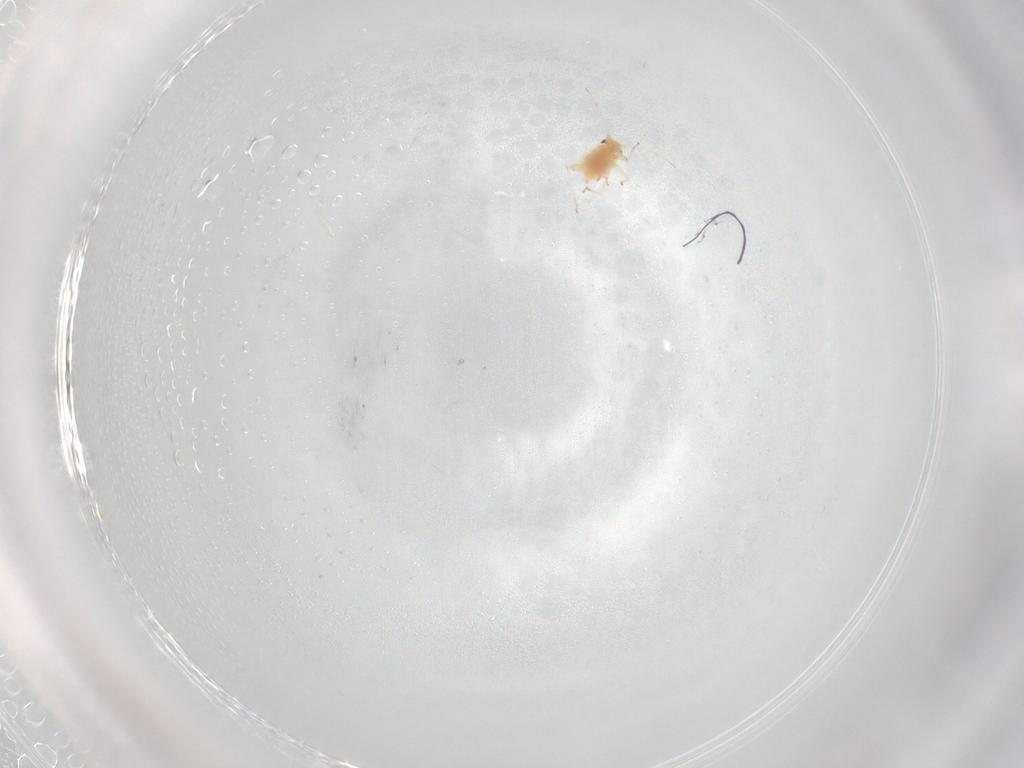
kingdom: Animalia
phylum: Arthropoda
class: Insecta
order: Hemiptera
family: Aphididae
